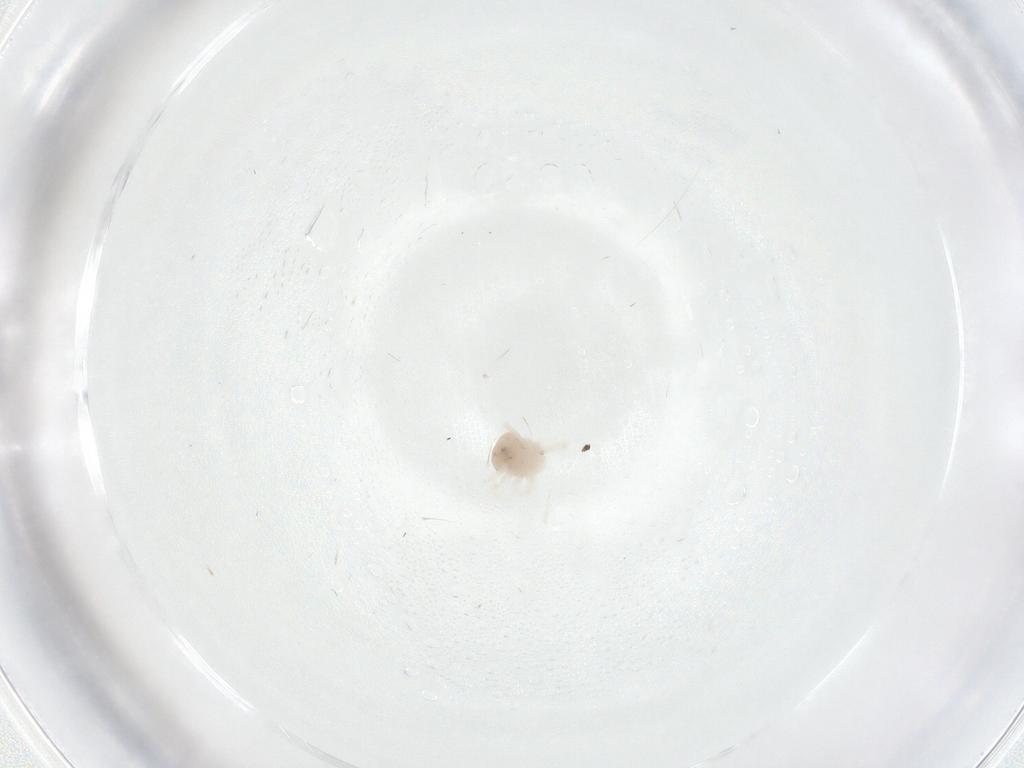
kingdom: Animalia
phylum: Arthropoda
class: Arachnida
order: Trombidiformes
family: Anystidae
